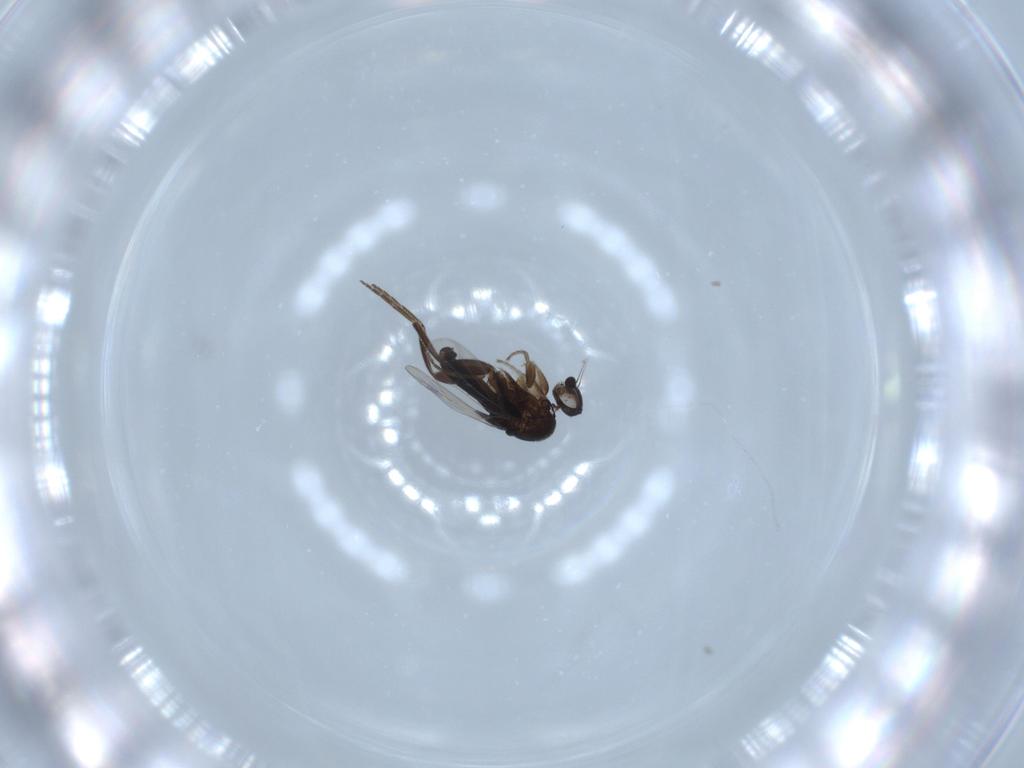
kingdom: Animalia
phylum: Arthropoda
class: Insecta
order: Diptera
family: Phoridae
